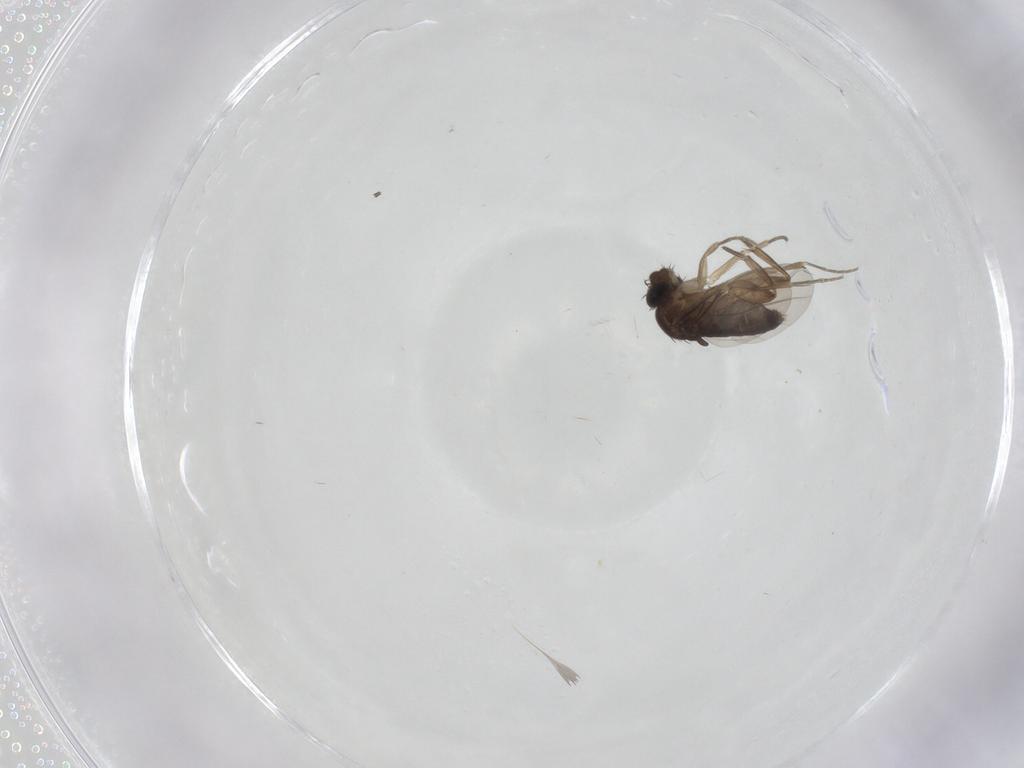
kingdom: Animalia
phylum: Arthropoda
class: Insecta
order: Diptera
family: Phoridae
